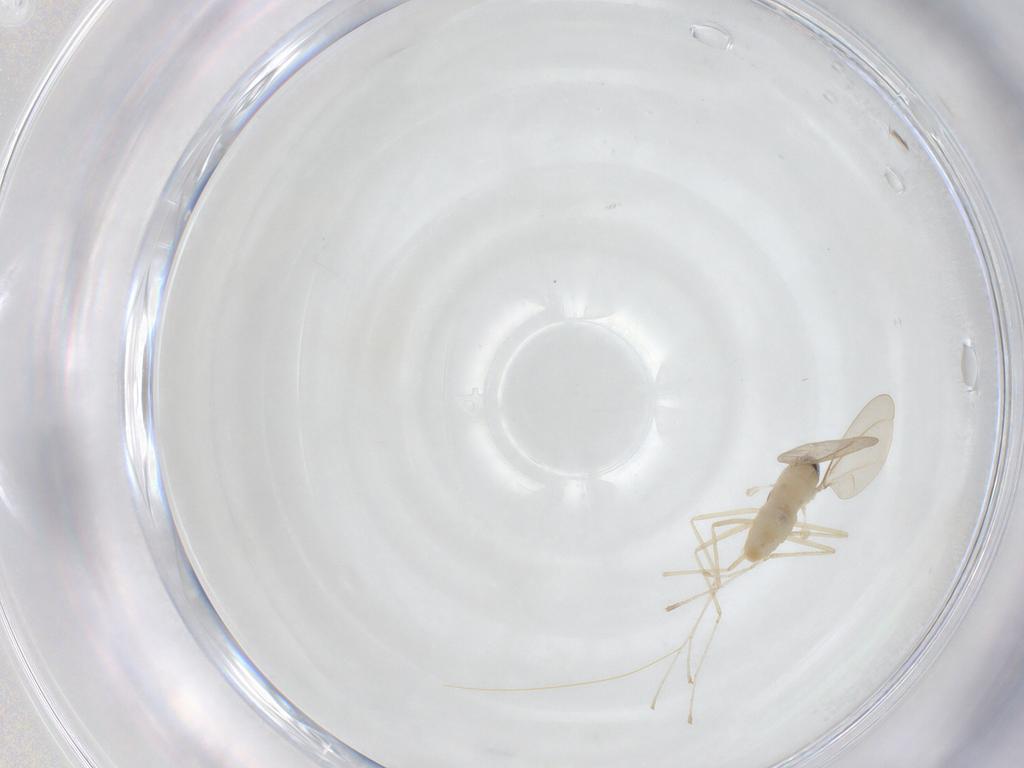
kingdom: Animalia
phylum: Arthropoda
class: Insecta
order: Diptera
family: Cecidomyiidae
